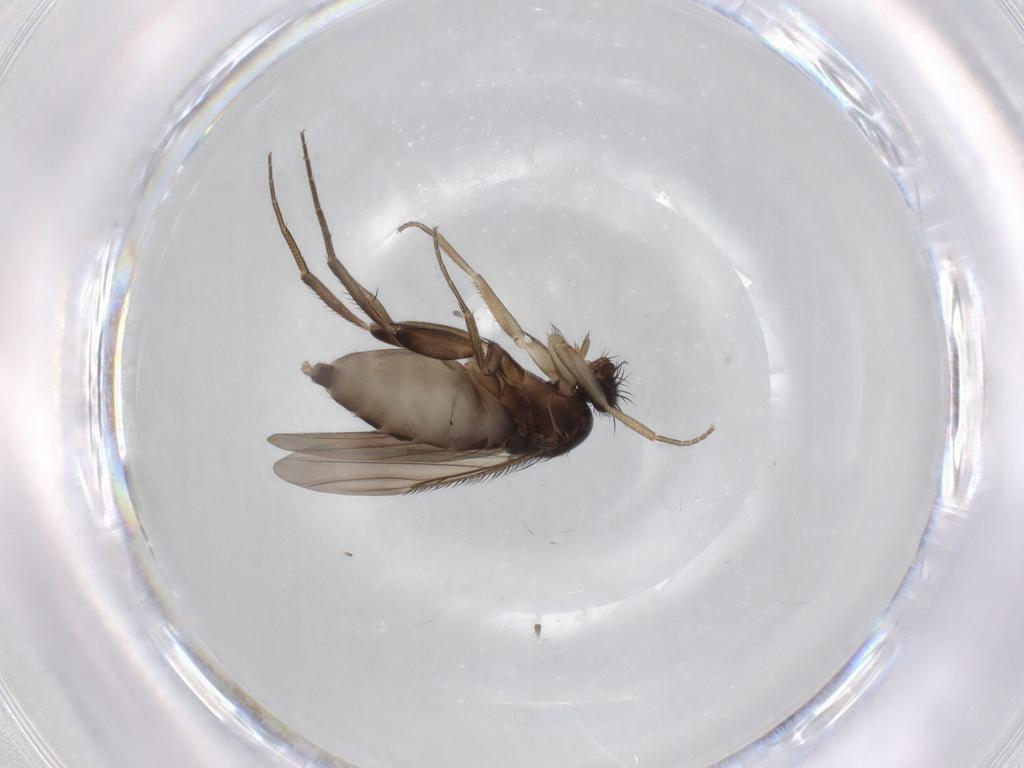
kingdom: Animalia
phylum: Arthropoda
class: Insecta
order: Diptera
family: Phoridae
